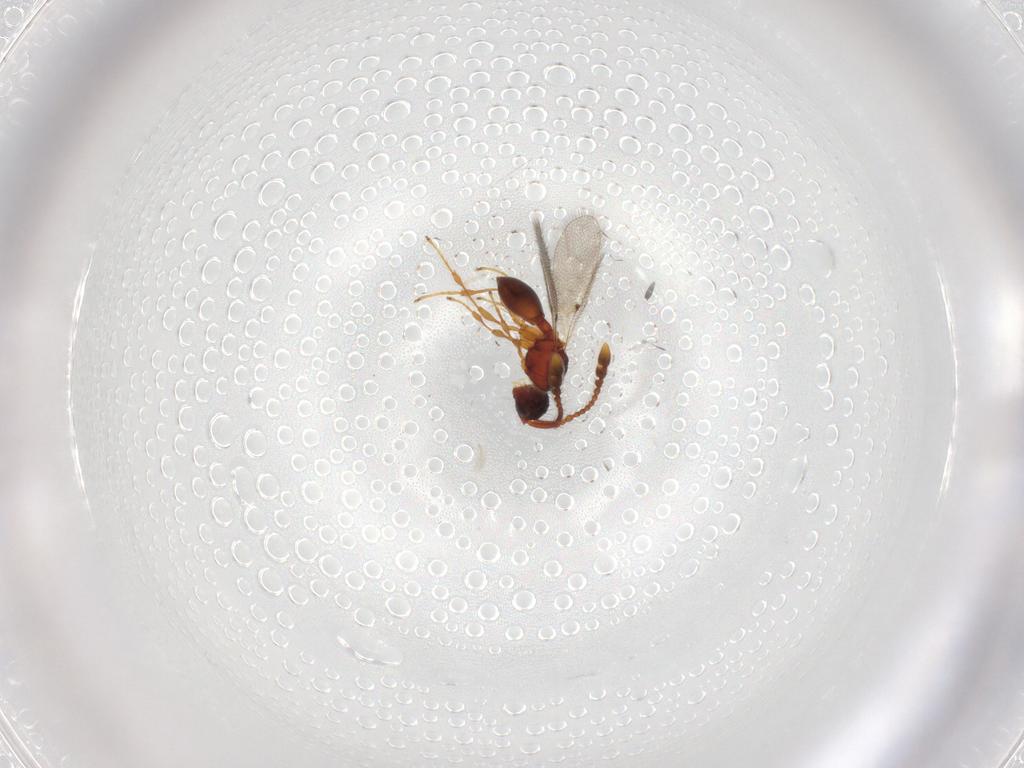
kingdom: Animalia
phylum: Arthropoda
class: Insecta
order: Hymenoptera
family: Diapriidae
